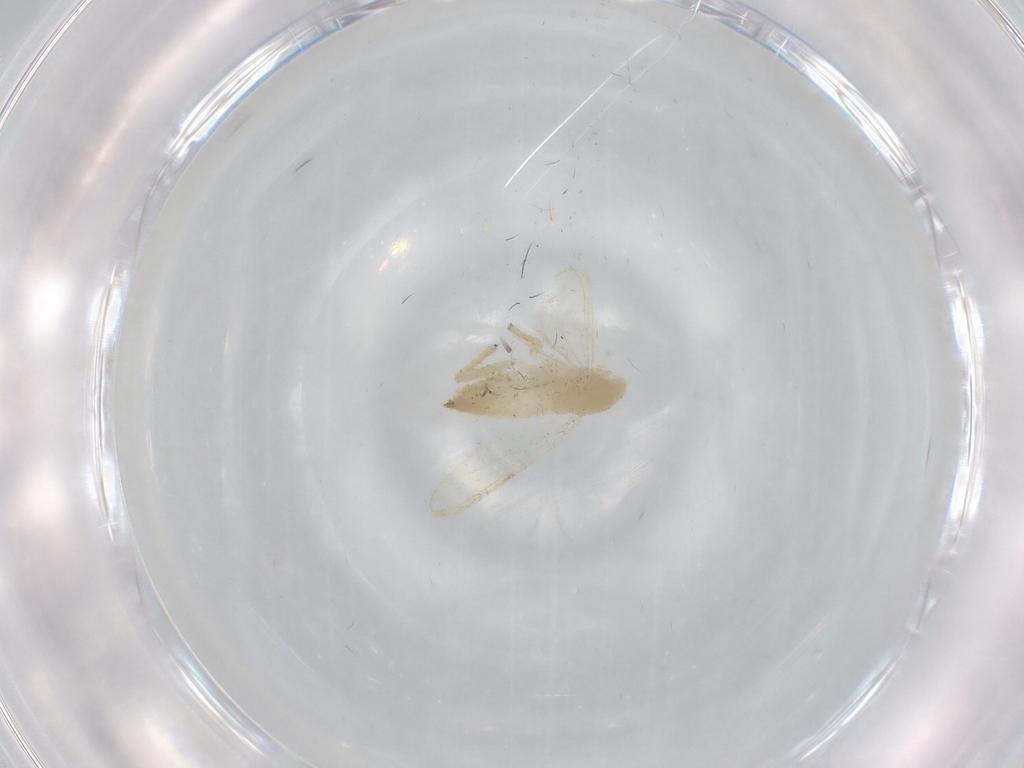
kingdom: Animalia
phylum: Arthropoda
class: Insecta
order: Diptera
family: Chironomidae
